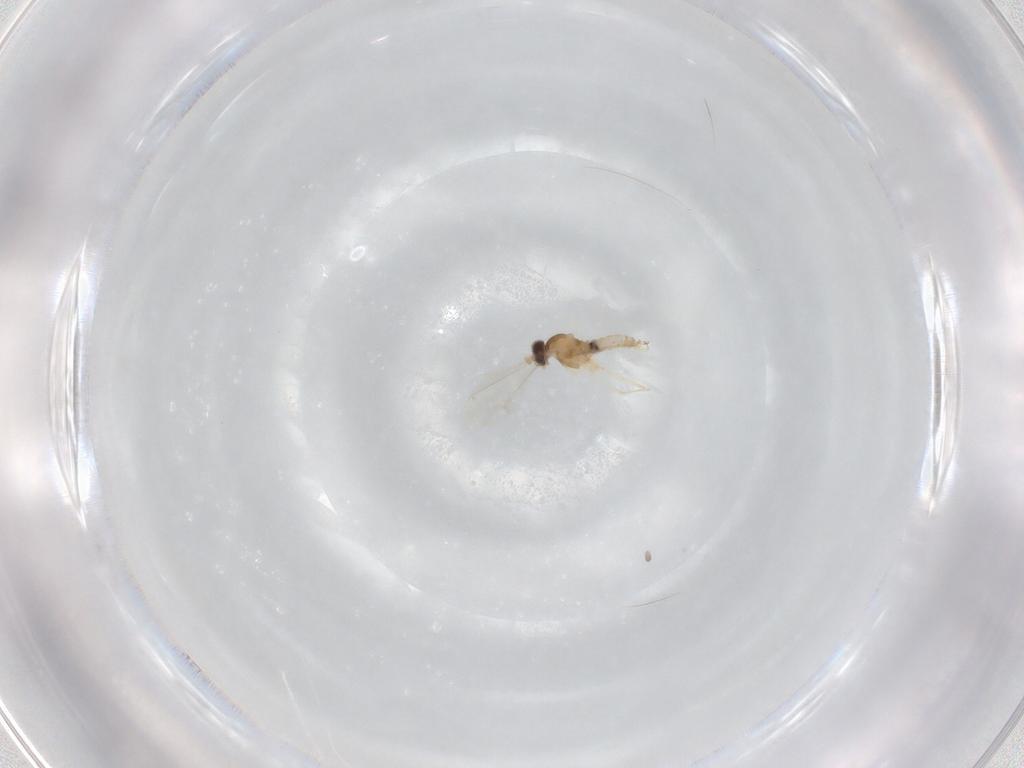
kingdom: Animalia
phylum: Arthropoda
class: Insecta
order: Diptera
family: Cecidomyiidae
